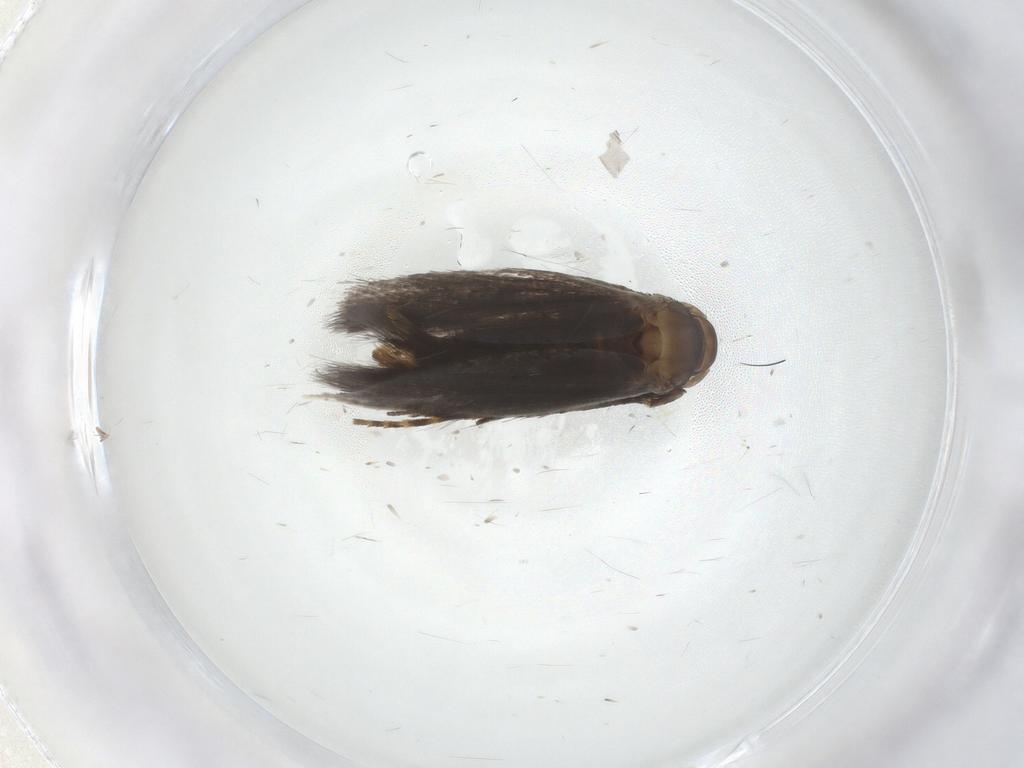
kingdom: Animalia
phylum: Arthropoda
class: Insecta
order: Lepidoptera
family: Elachistidae
